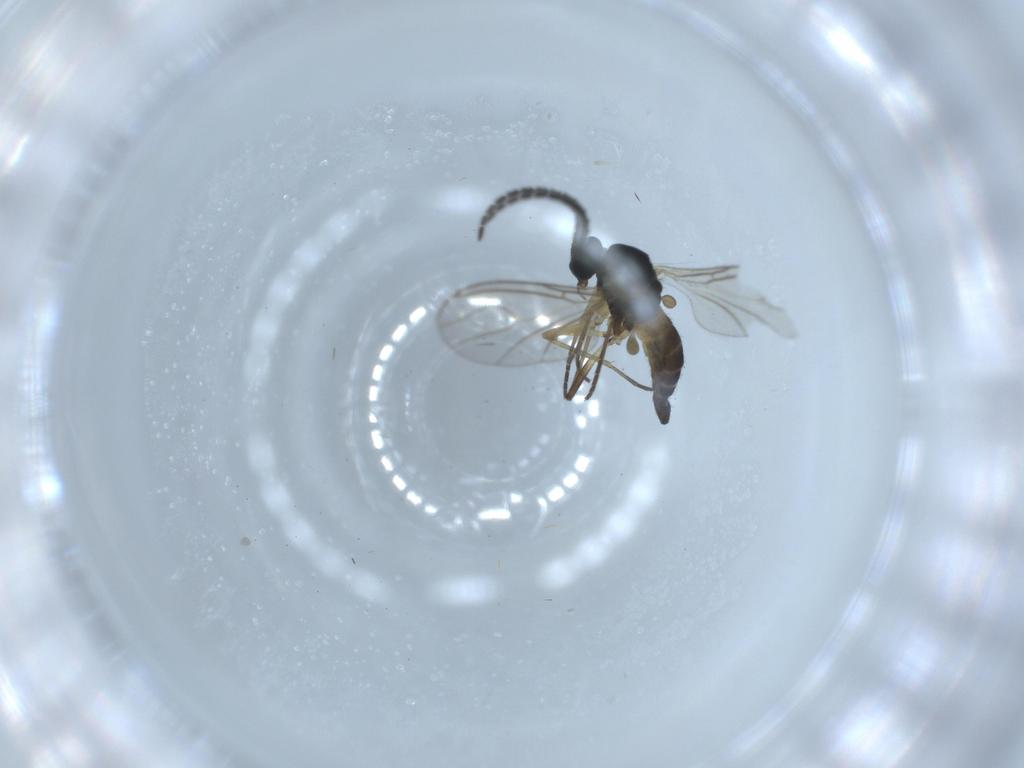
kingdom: Animalia
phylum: Arthropoda
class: Insecta
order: Diptera
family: Sciaridae
